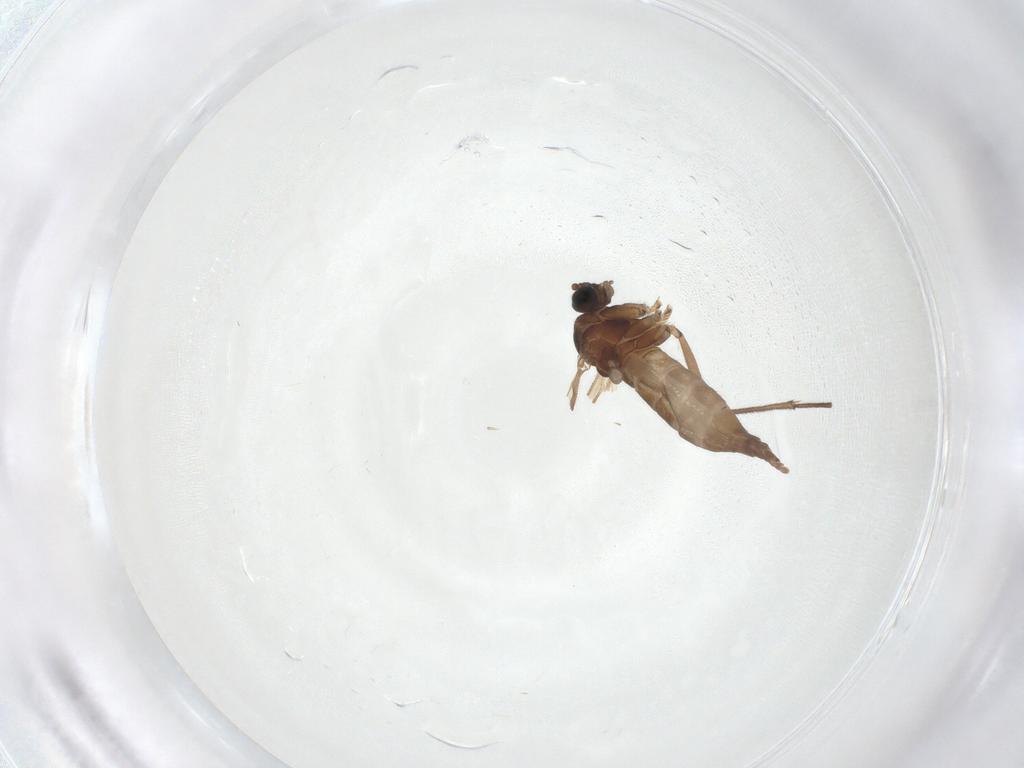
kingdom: Animalia
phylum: Arthropoda
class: Insecta
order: Diptera
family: Sciaridae
